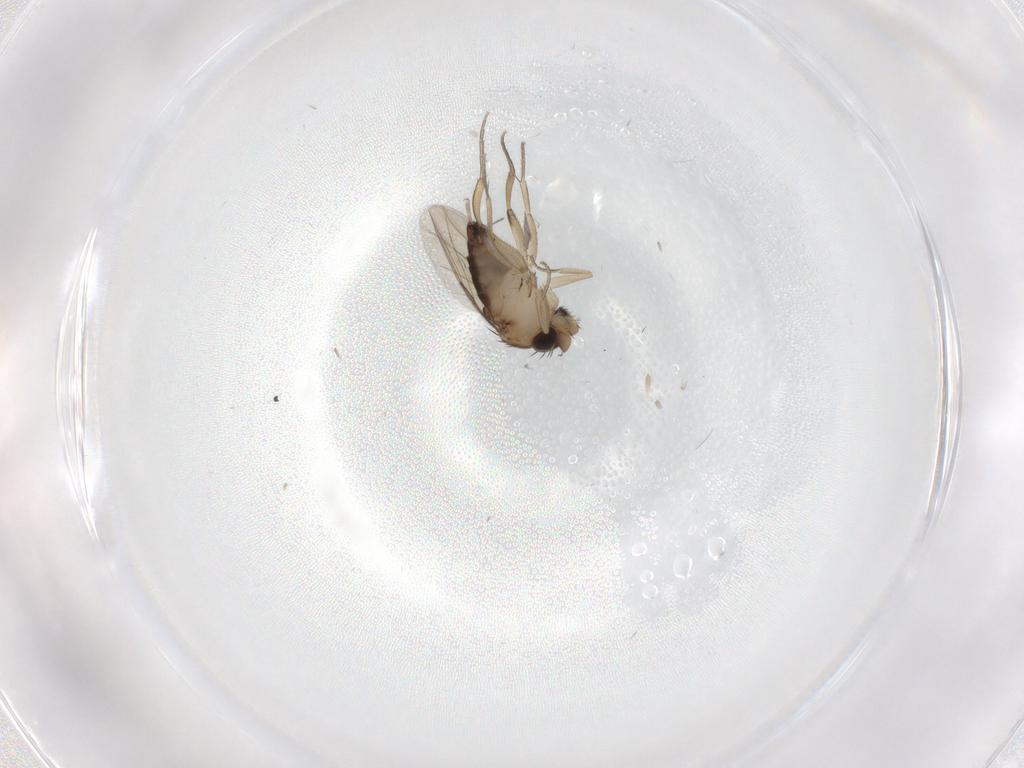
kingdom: Animalia
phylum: Arthropoda
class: Insecta
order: Diptera
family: Phoridae
